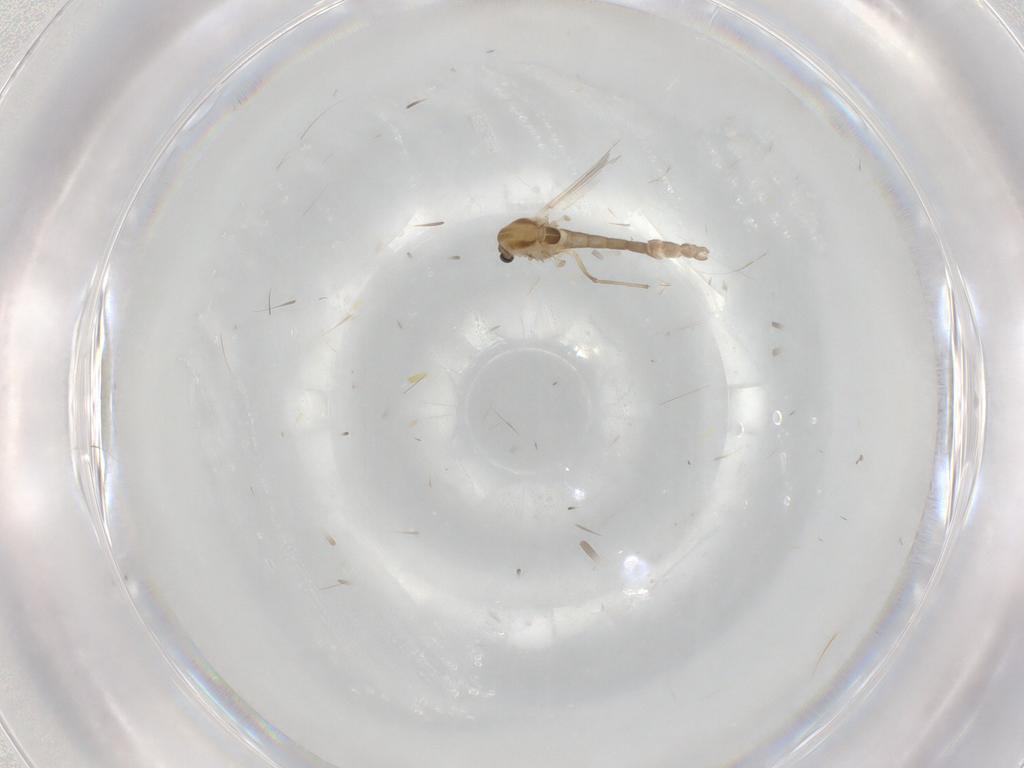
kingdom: Animalia
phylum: Arthropoda
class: Insecta
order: Diptera
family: Chironomidae
